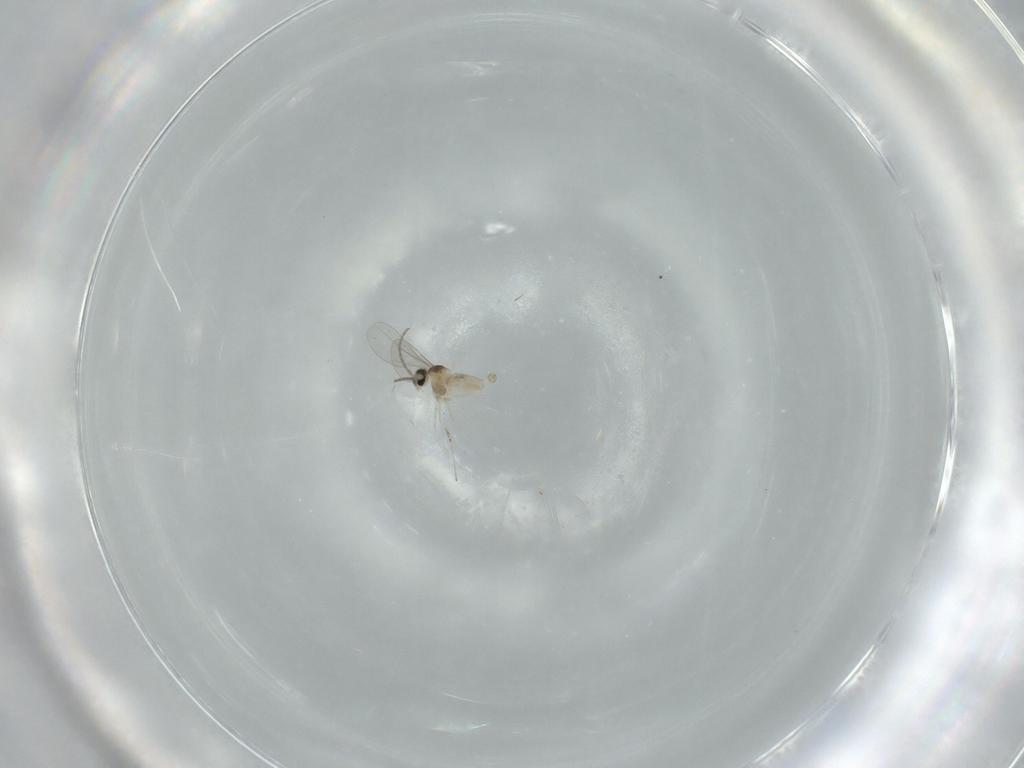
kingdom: Animalia
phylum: Arthropoda
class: Insecta
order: Diptera
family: Cecidomyiidae
